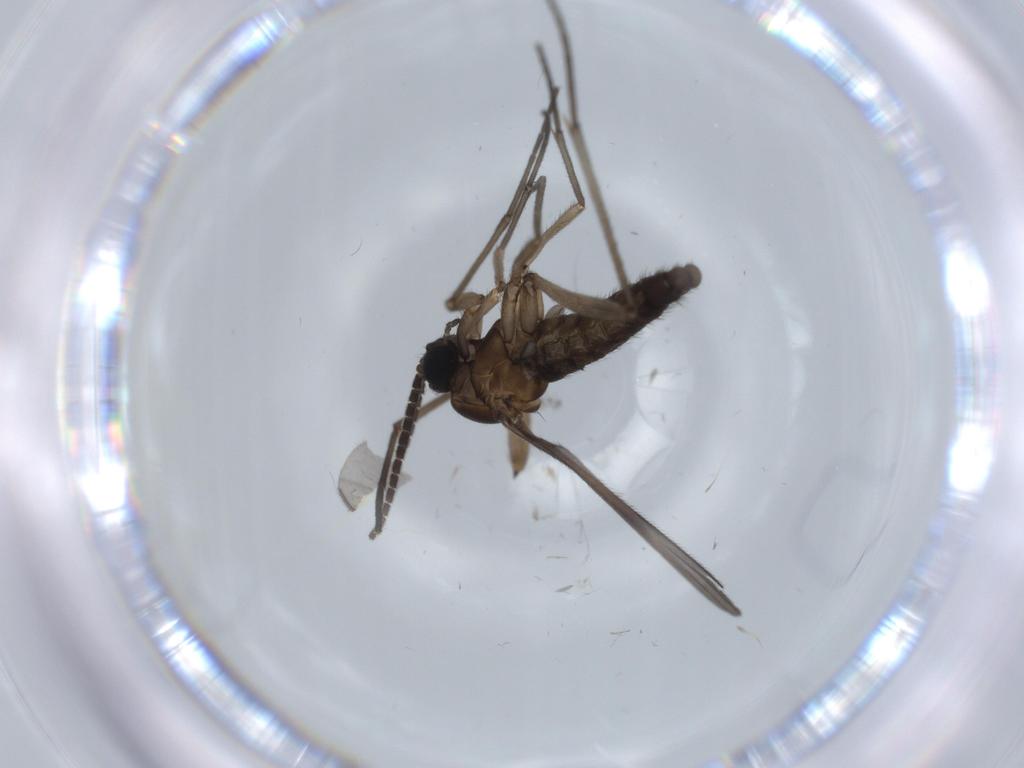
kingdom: Animalia
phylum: Arthropoda
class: Insecta
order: Diptera
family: Sciaridae
